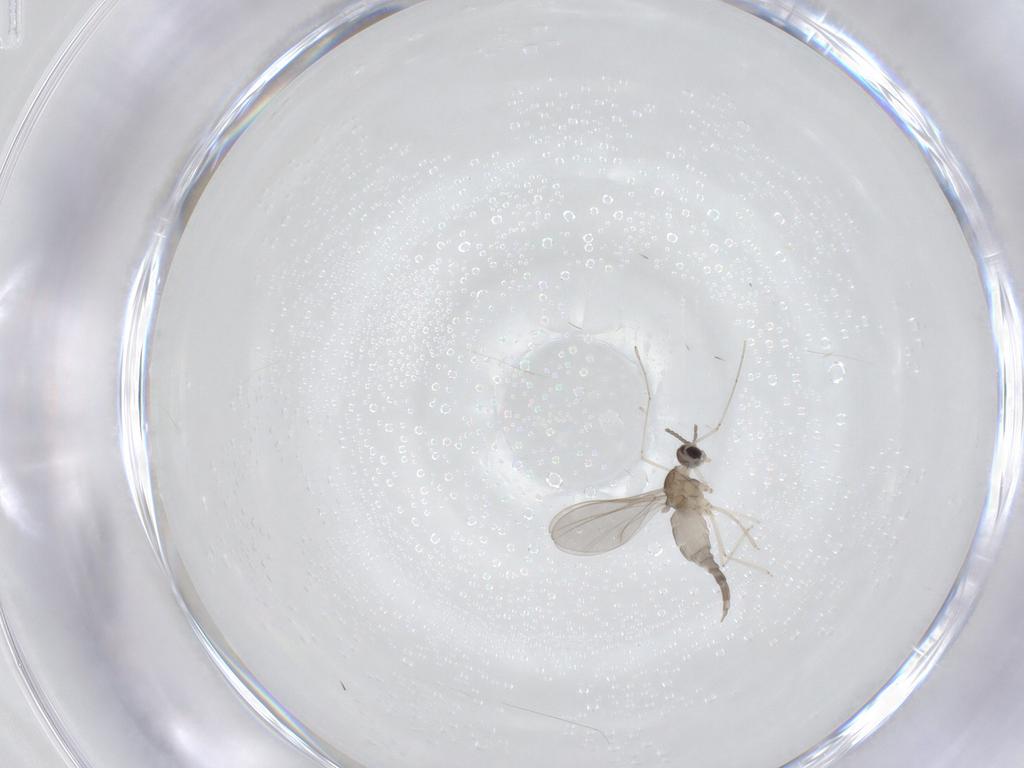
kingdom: Animalia
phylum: Arthropoda
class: Insecta
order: Diptera
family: Cecidomyiidae
